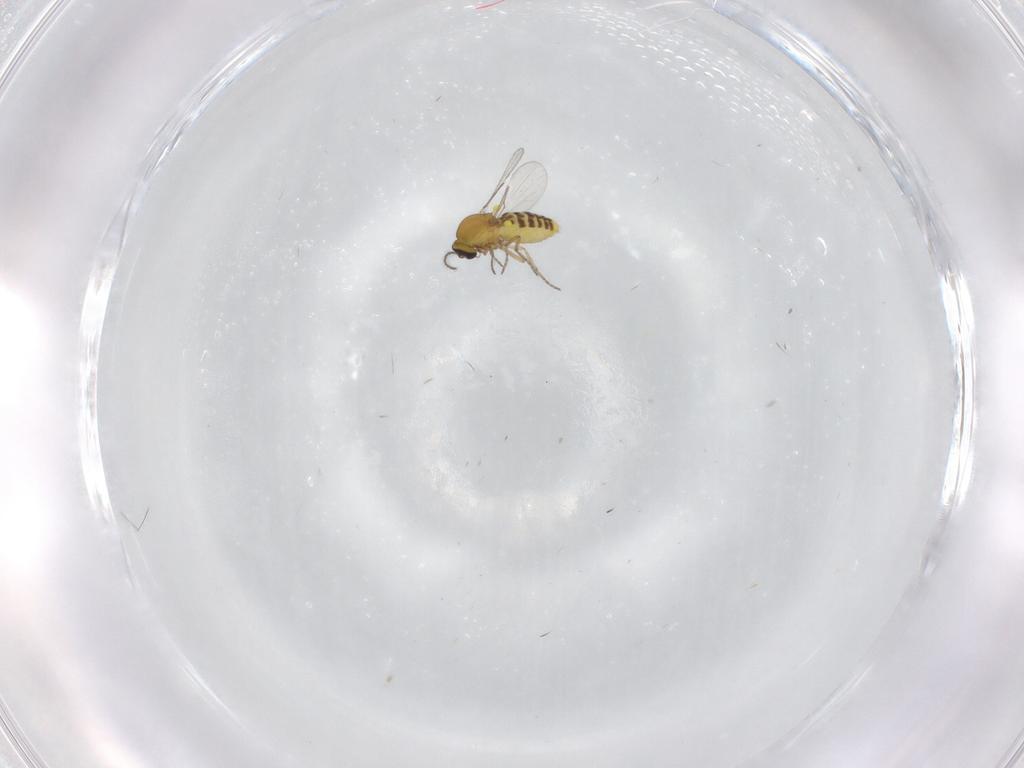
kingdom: Animalia
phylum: Arthropoda
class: Insecta
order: Diptera
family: Ceratopogonidae
